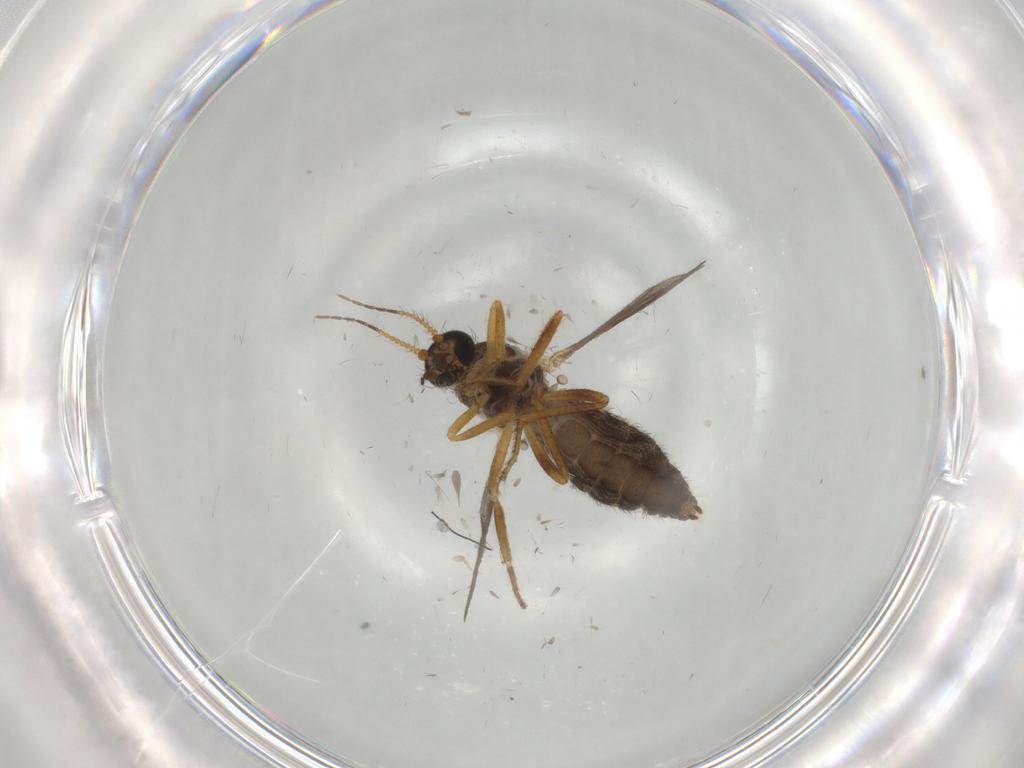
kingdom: Animalia
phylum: Arthropoda
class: Insecta
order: Diptera
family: Ceratopogonidae
